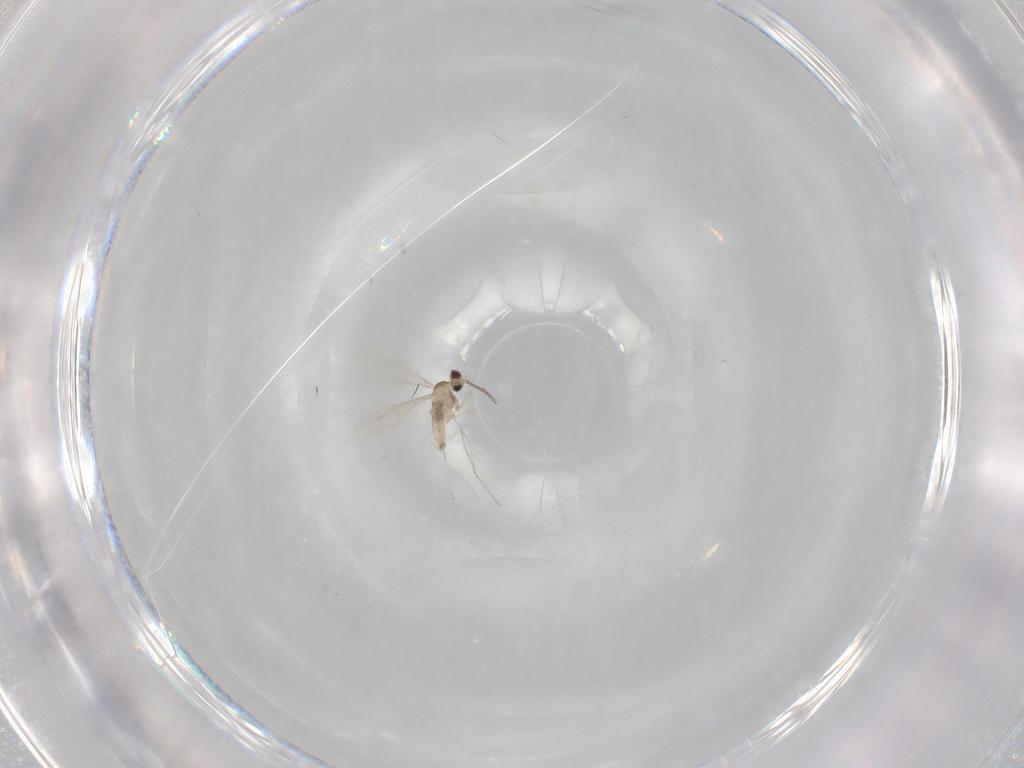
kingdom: Animalia
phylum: Arthropoda
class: Insecta
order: Diptera
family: Cecidomyiidae
